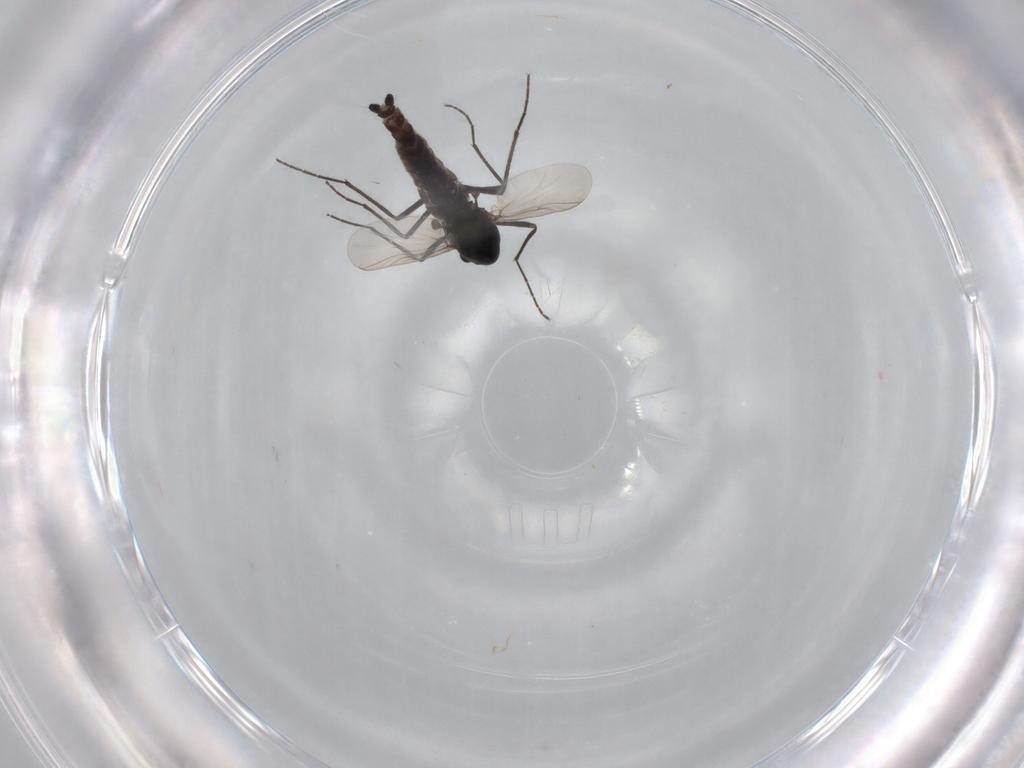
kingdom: Animalia
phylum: Arthropoda
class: Insecta
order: Diptera
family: Chironomidae
